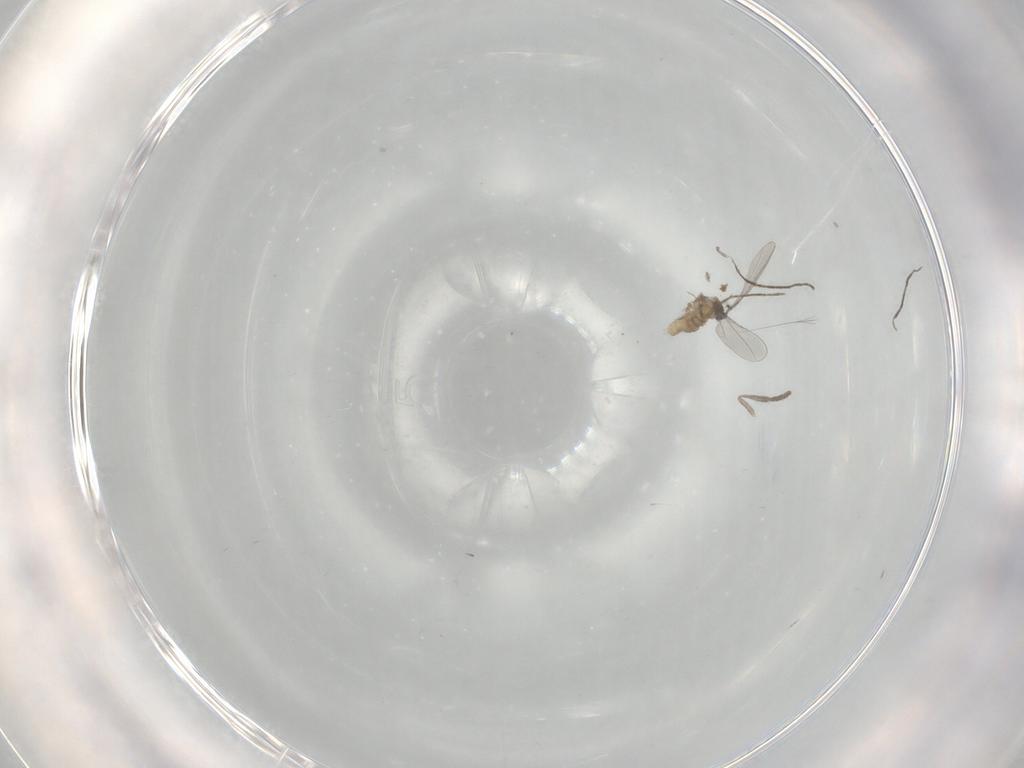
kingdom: Animalia
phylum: Arthropoda
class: Insecta
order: Diptera
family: Cecidomyiidae
